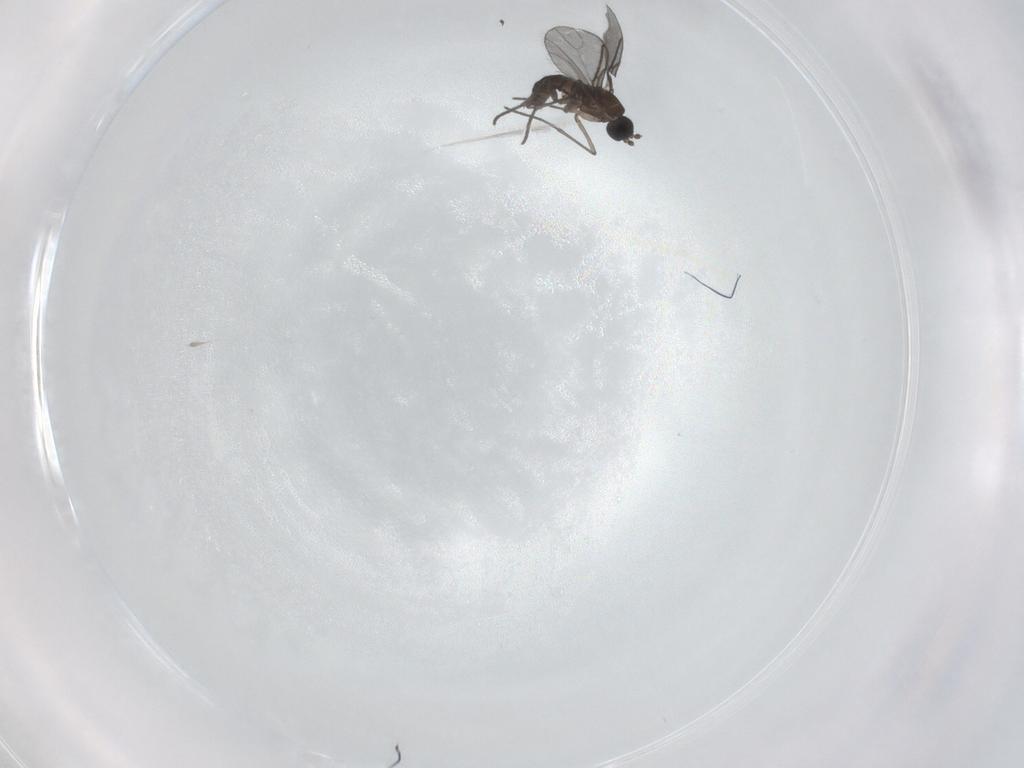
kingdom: Animalia
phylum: Arthropoda
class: Insecta
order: Diptera
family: Chironomidae
